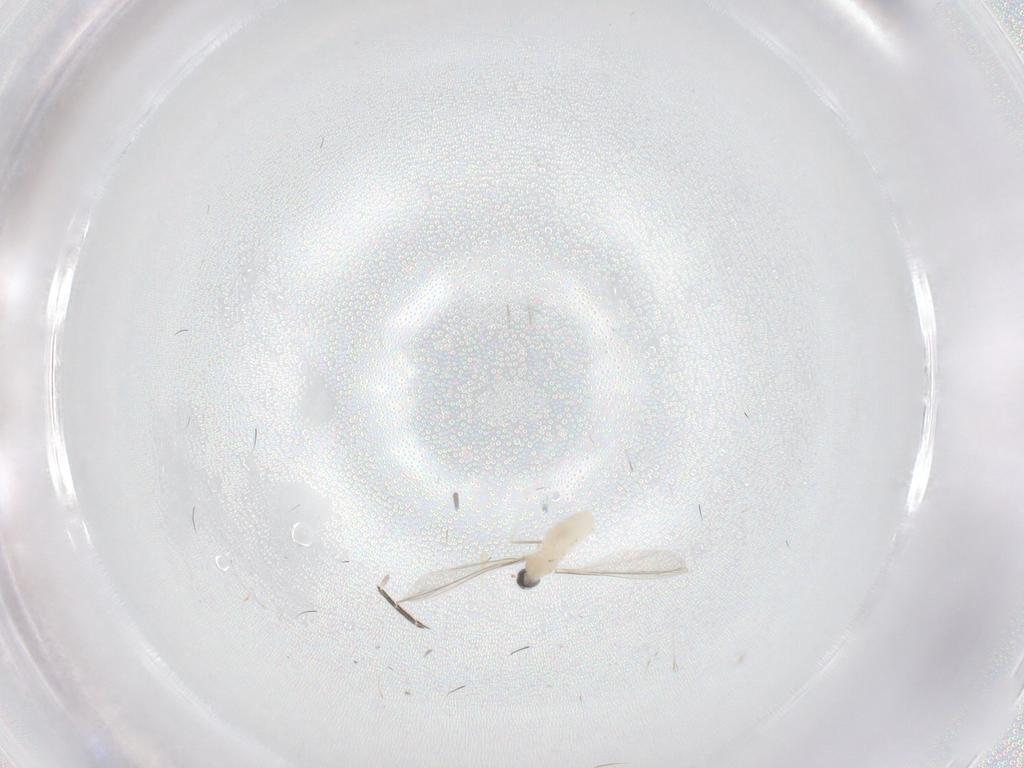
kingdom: Animalia
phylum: Arthropoda
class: Insecta
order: Diptera
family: Cecidomyiidae
